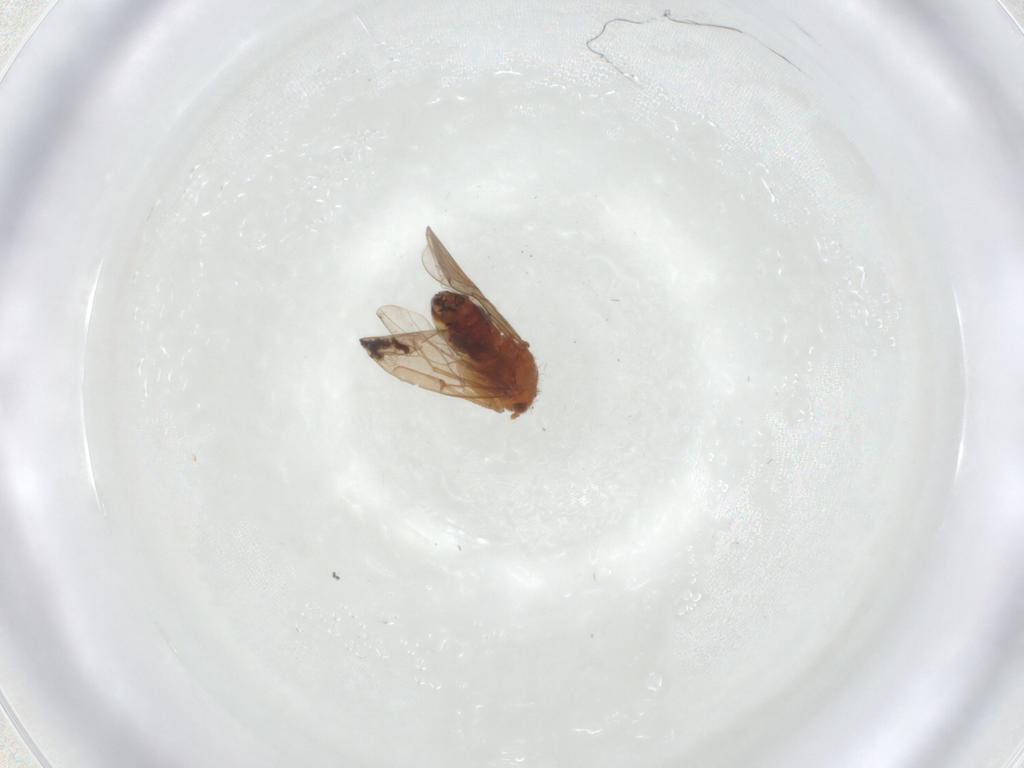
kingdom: Animalia
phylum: Arthropoda
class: Insecta
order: Psocodea
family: Ectopsocidae
